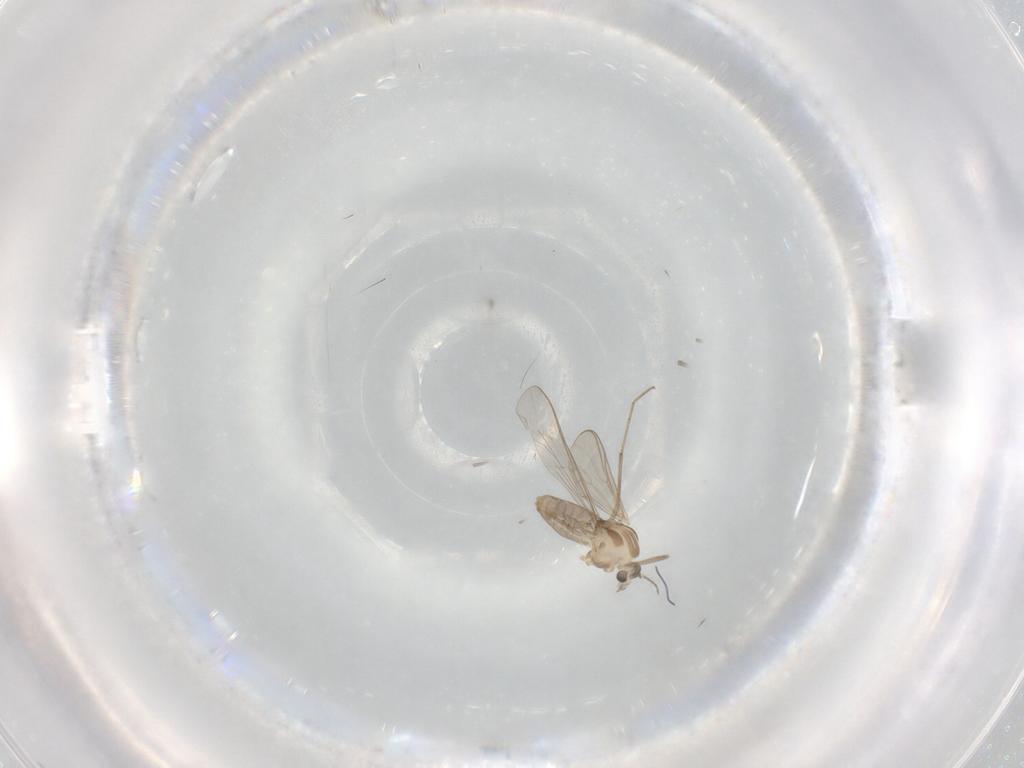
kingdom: Animalia
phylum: Arthropoda
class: Insecta
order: Diptera
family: Chironomidae
